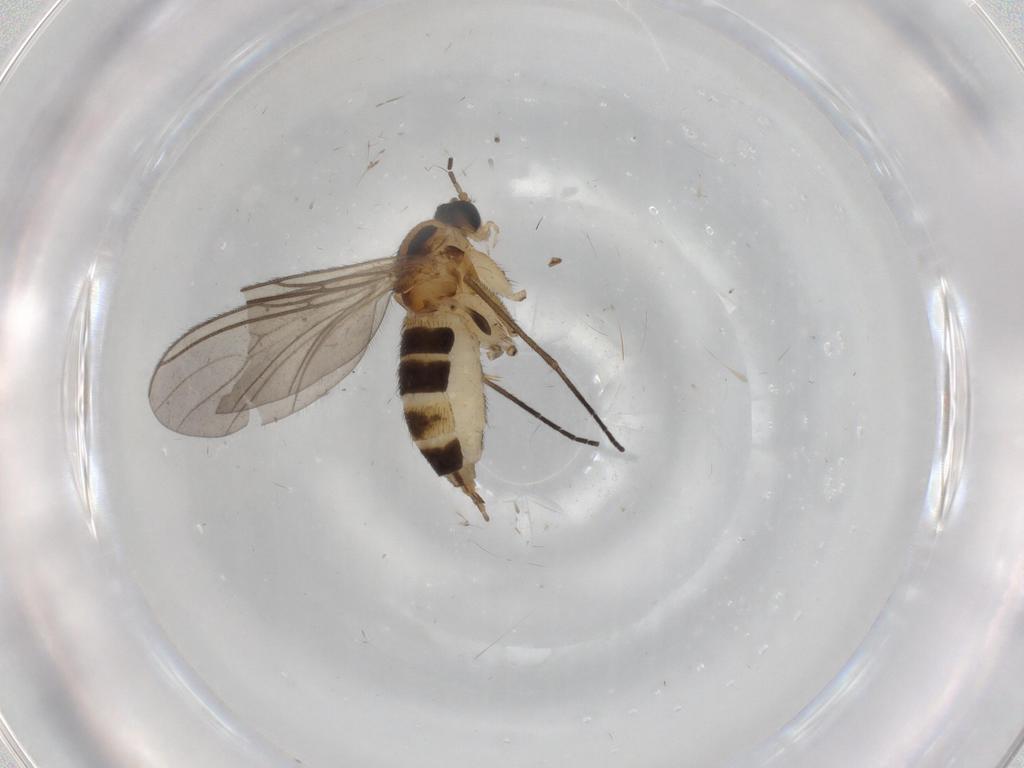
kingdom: Animalia
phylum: Arthropoda
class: Insecta
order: Diptera
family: Sciaridae
